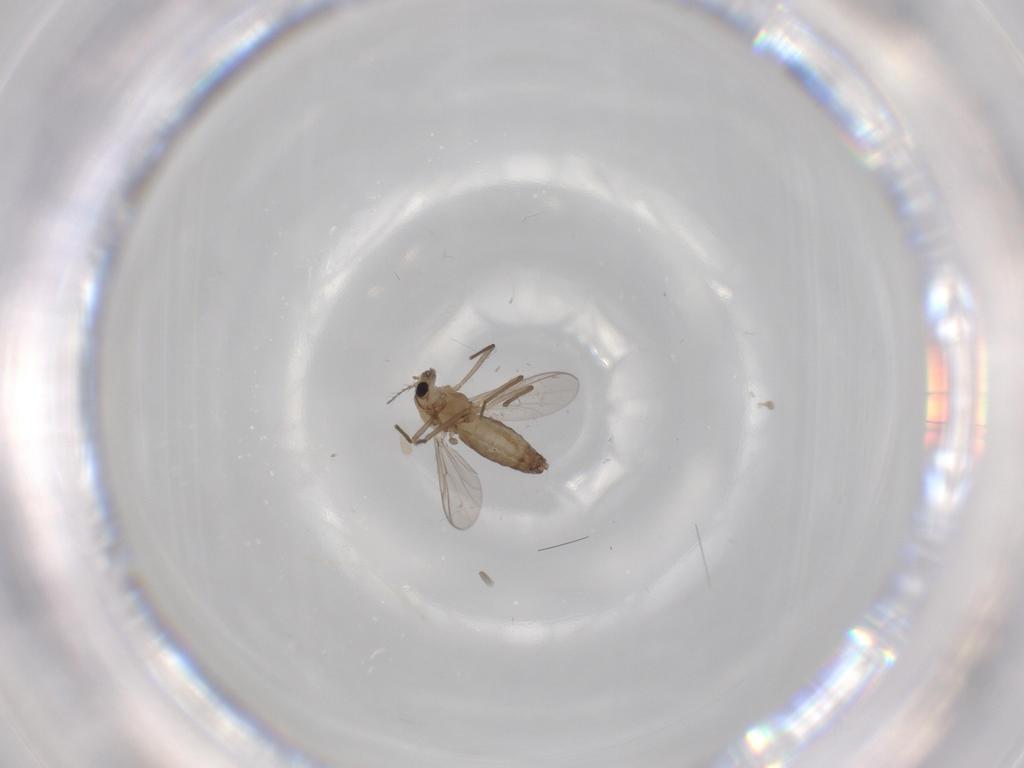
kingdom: Animalia
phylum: Arthropoda
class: Insecta
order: Diptera
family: Chironomidae
